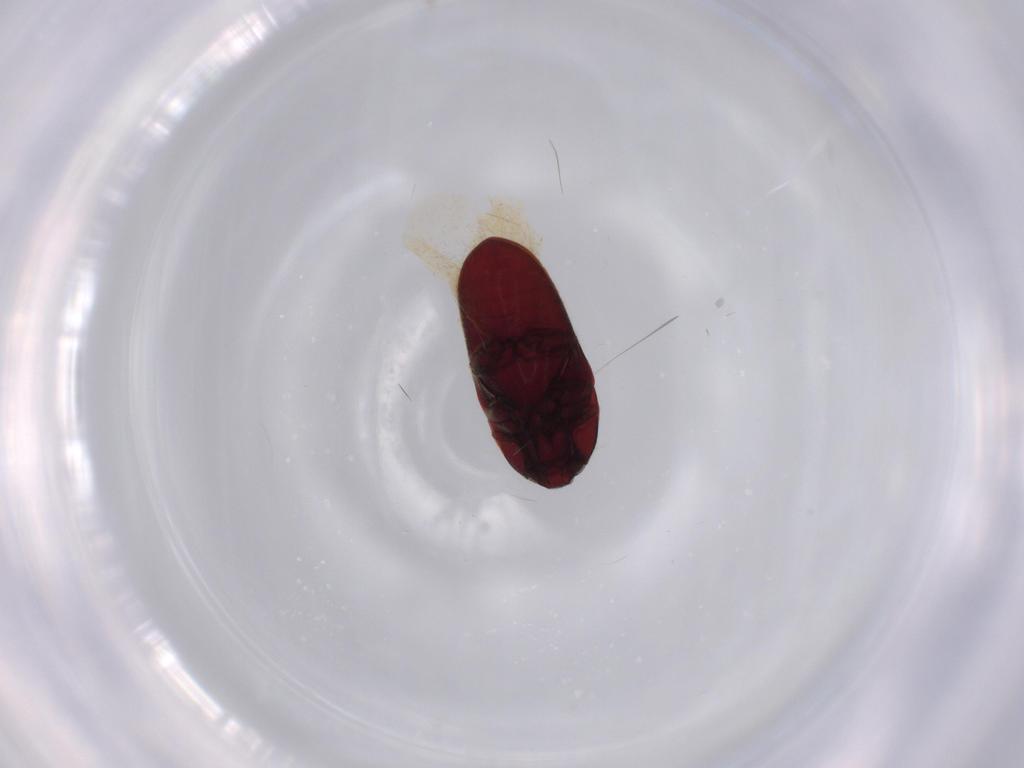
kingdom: Animalia
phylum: Arthropoda
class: Insecta
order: Coleoptera
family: Throscidae
